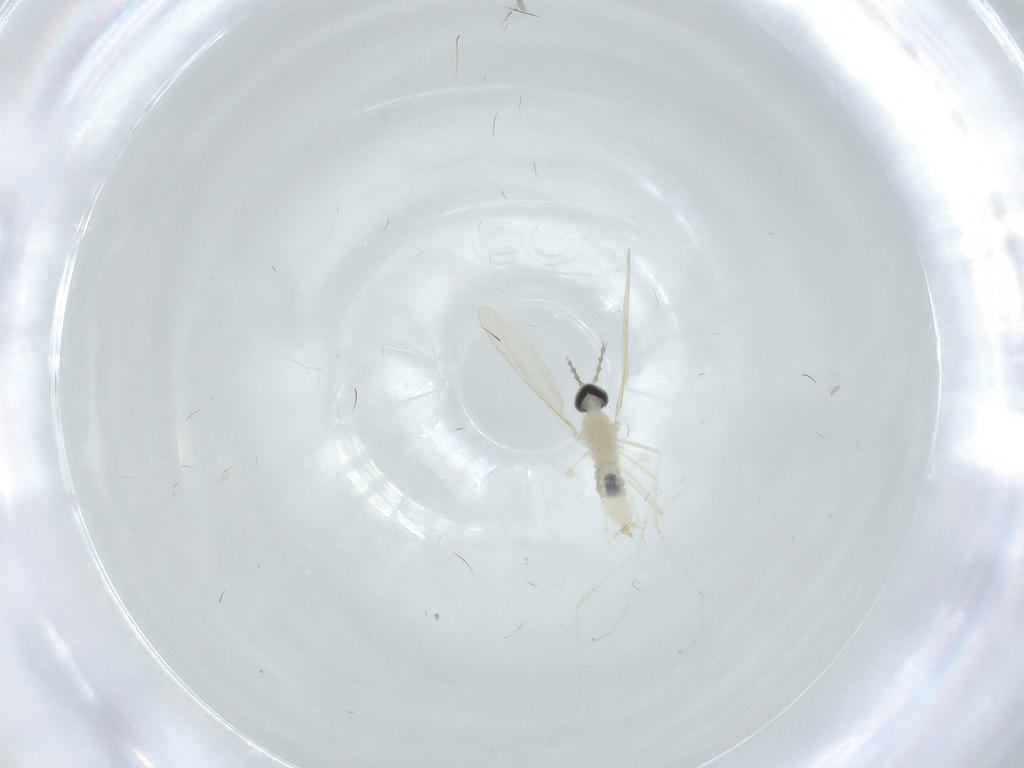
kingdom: Animalia
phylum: Arthropoda
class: Insecta
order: Diptera
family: Cecidomyiidae
